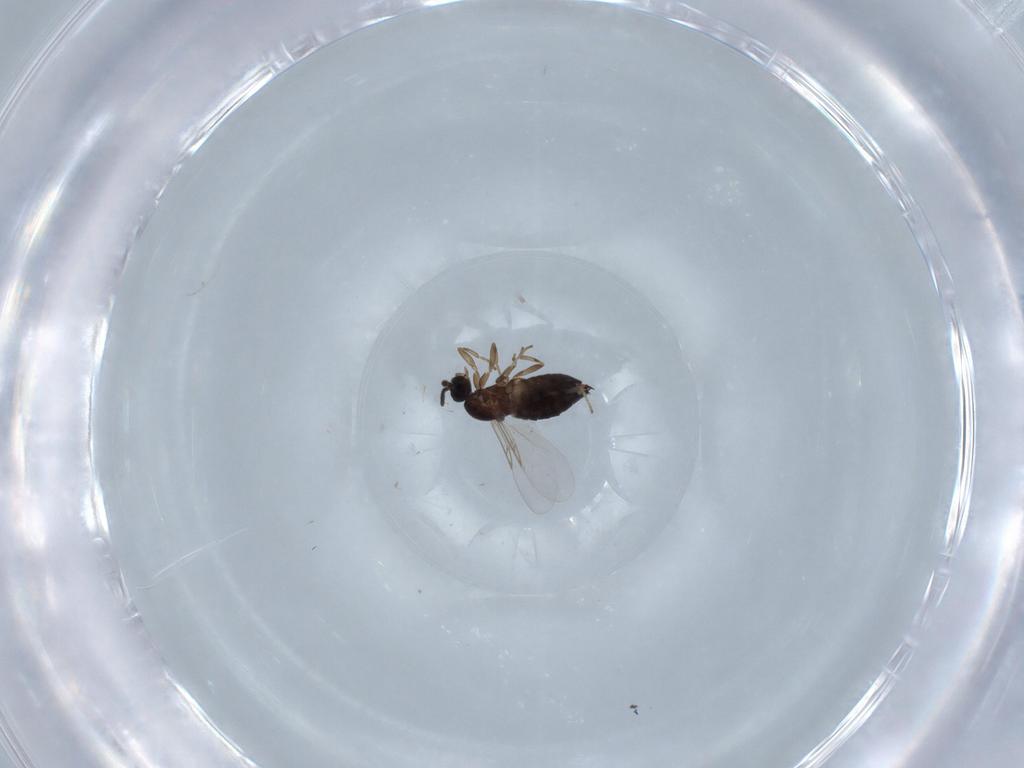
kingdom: Animalia
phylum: Arthropoda
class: Insecta
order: Diptera
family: Scatopsidae
